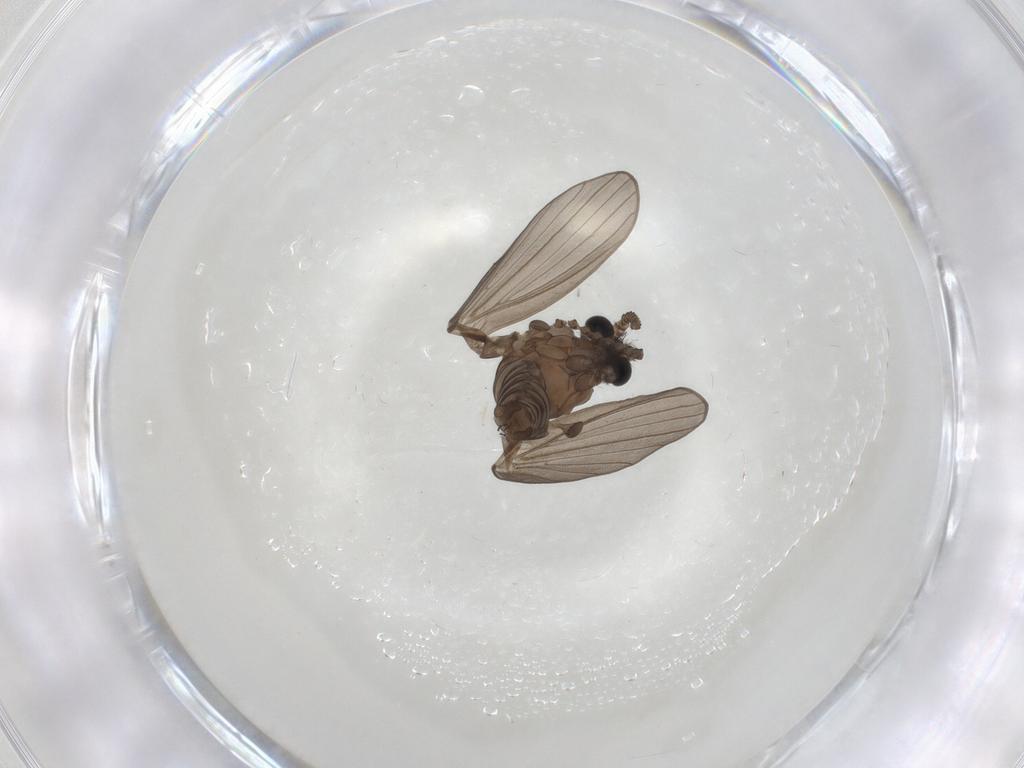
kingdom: Animalia
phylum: Arthropoda
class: Insecta
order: Diptera
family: Psychodidae
